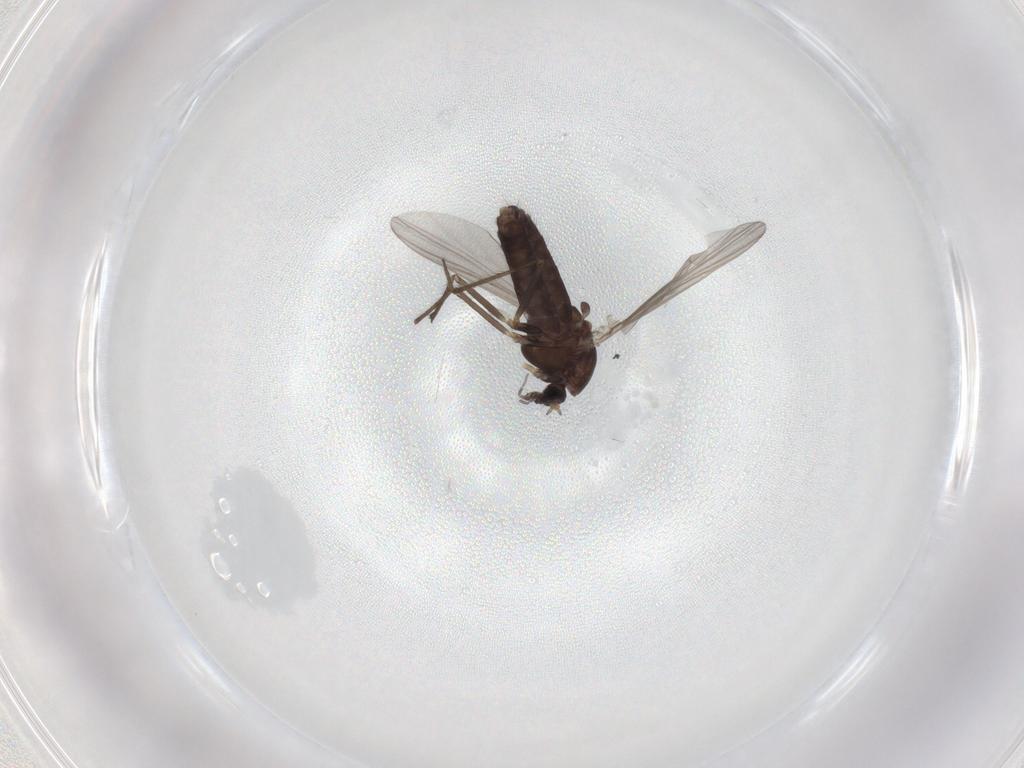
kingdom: Animalia
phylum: Arthropoda
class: Insecta
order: Diptera
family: Chironomidae
